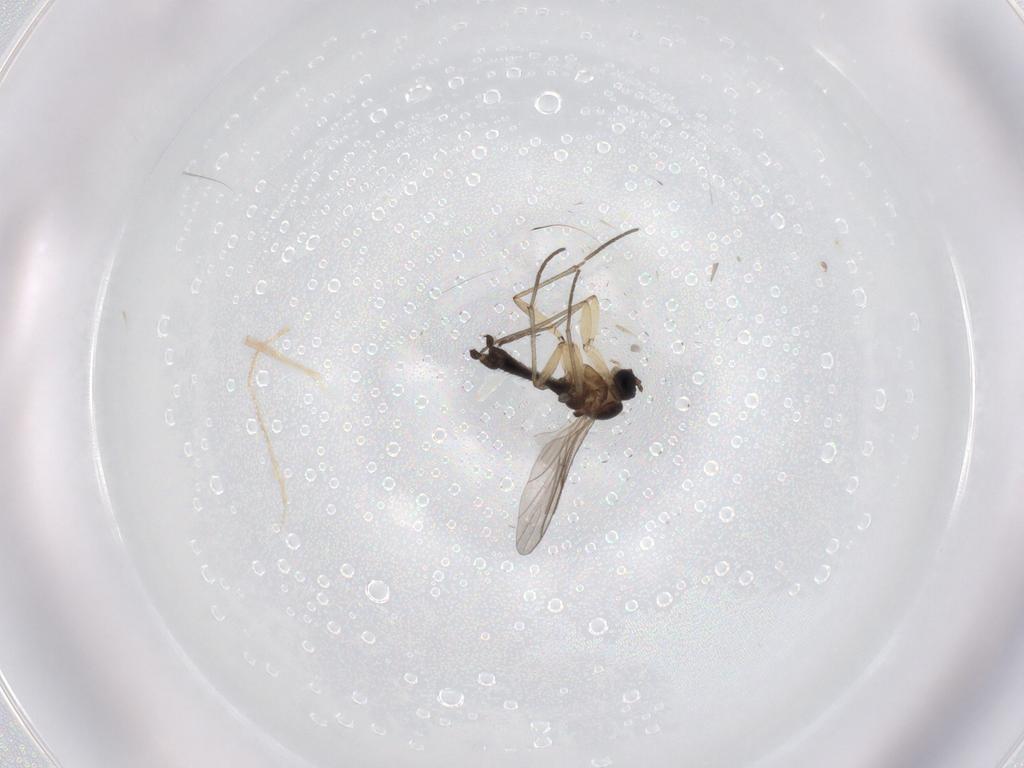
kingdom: Animalia
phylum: Arthropoda
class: Insecta
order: Diptera
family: Cecidomyiidae
